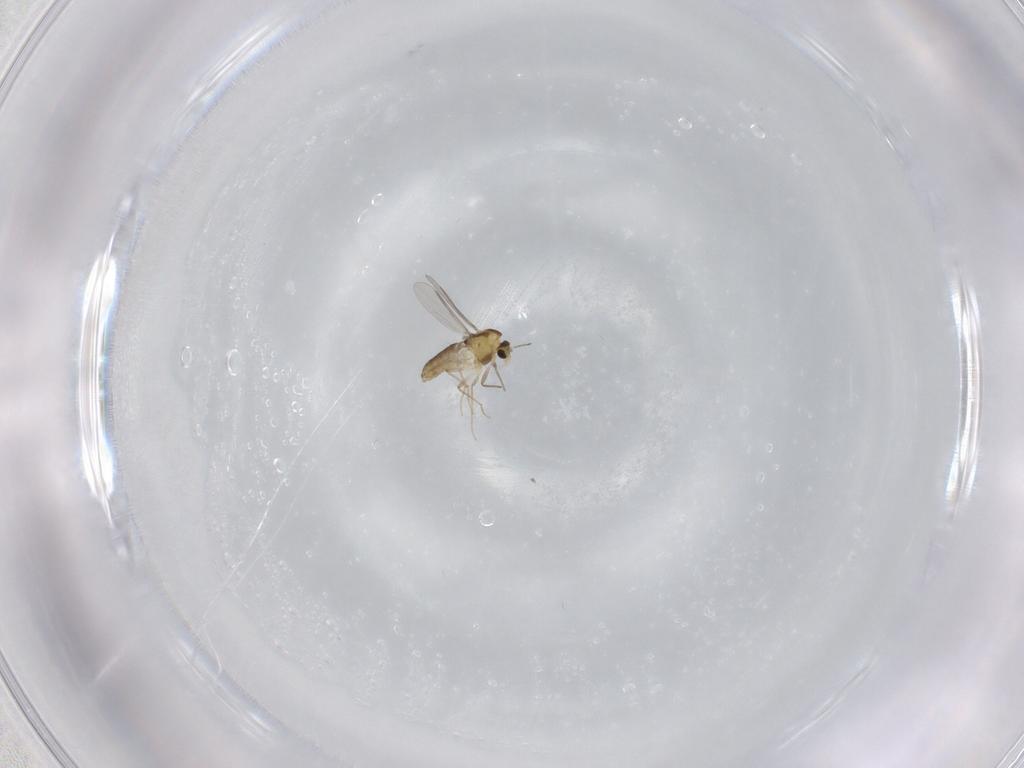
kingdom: Animalia
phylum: Arthropoda
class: Insecta
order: Diptera
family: Chironomidae
